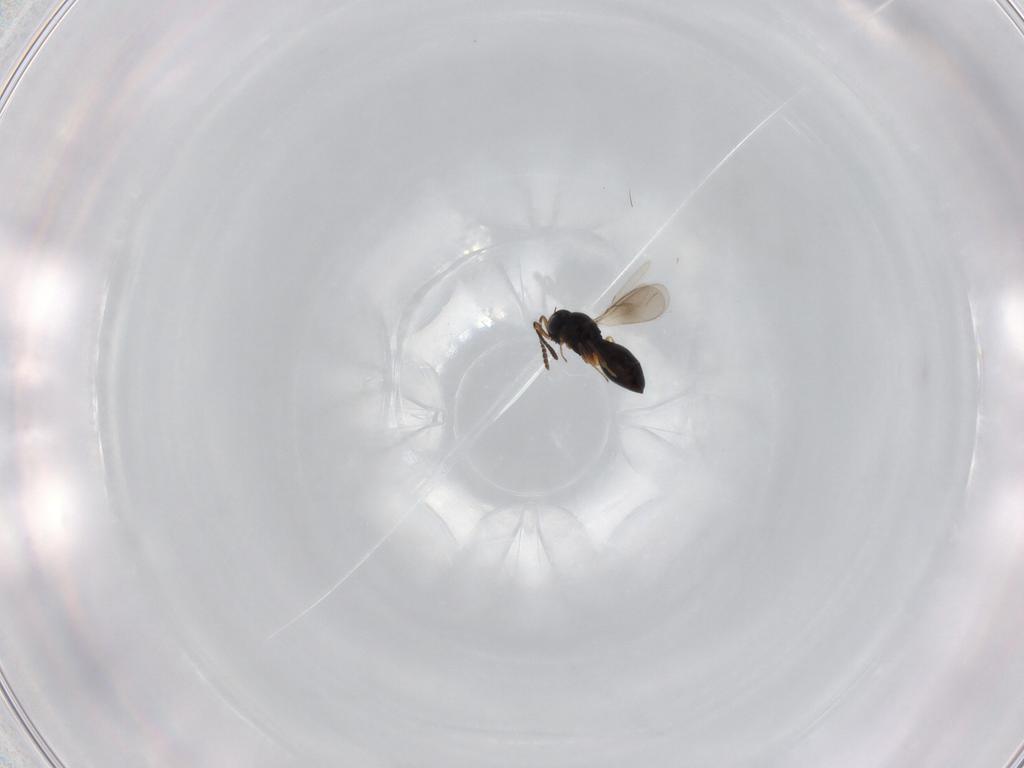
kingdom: Animalia
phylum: Arthropoda
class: Insecta
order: Hymenoptera
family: Scelionidae
